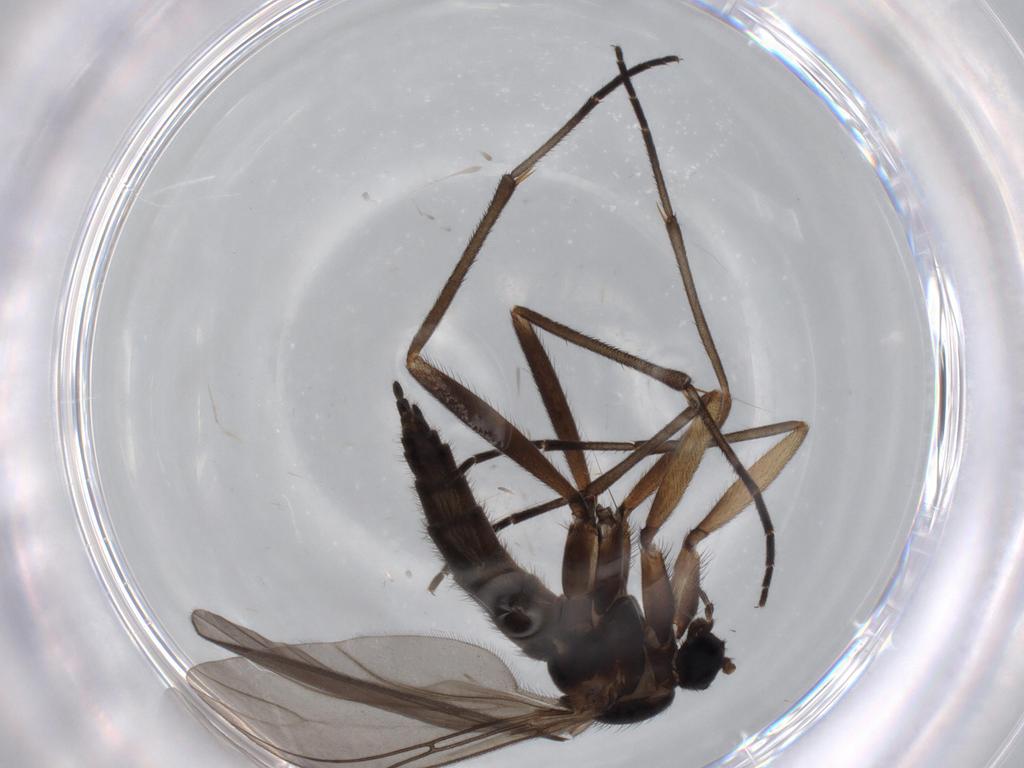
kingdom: Animalia
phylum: Arthropoda
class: Insecta
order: Diptera
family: Sciaridae
